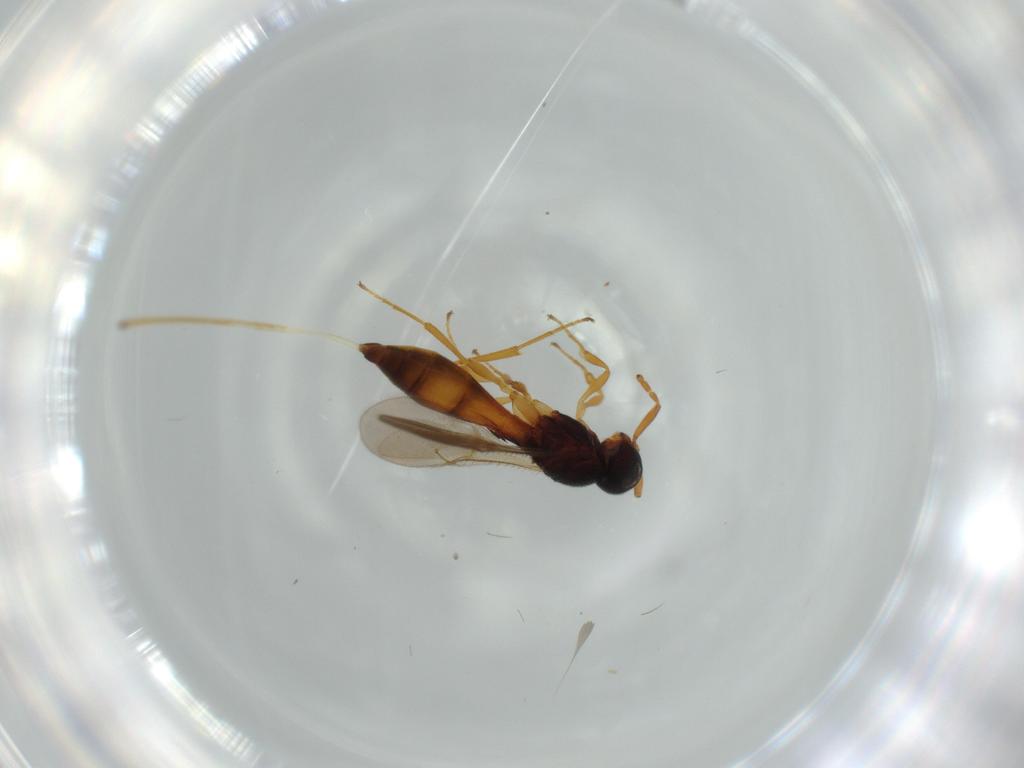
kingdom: Animalia
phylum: Arthropoda
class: Insecta
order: Hymenoptera
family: Scelionidae
